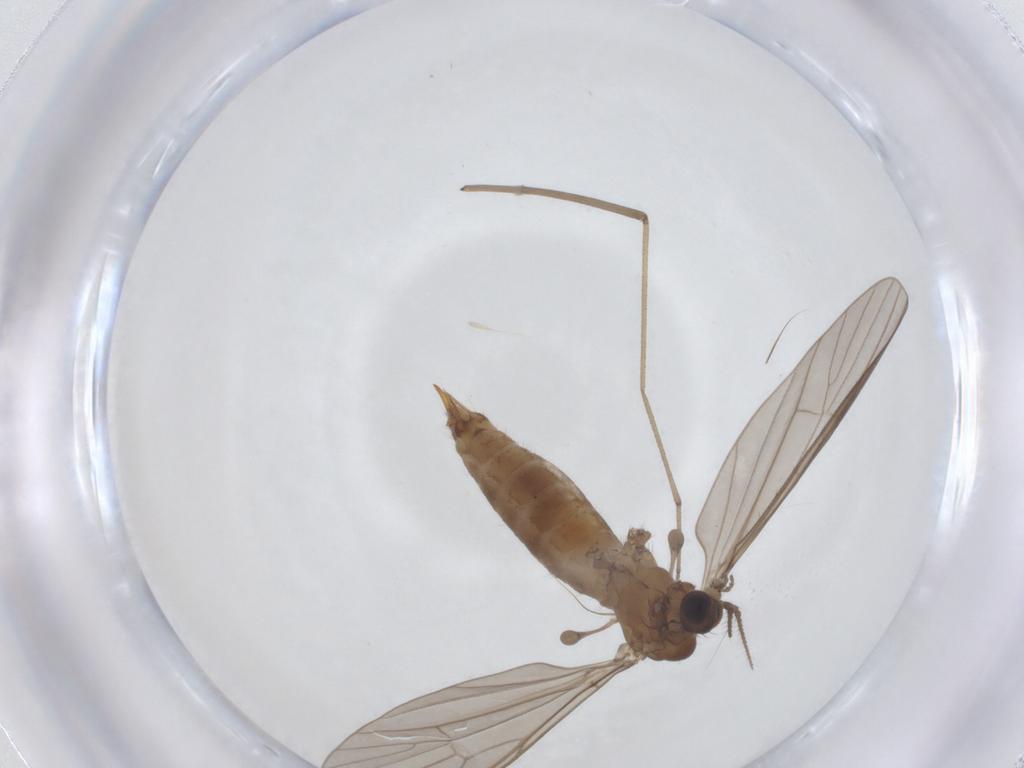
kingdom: Animalia
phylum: Arthropoda
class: Insecta
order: Diptera
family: Limoniidae
